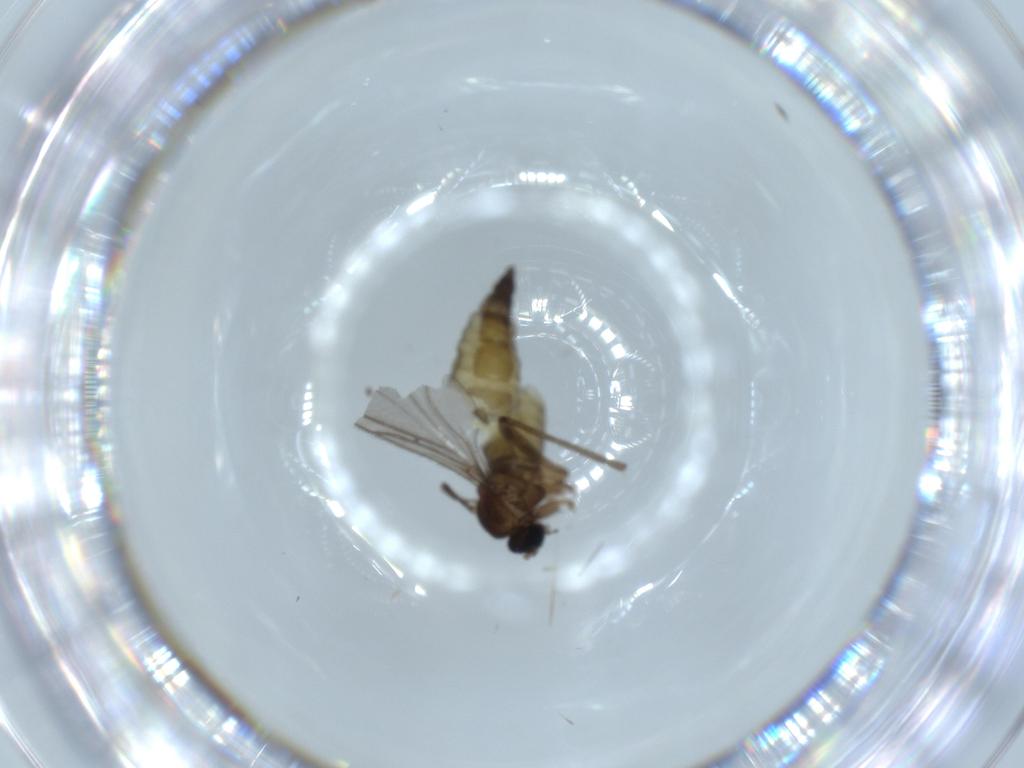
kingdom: Animalia
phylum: Arthropoda
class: Insecta
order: Diptera
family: Sciaridae
